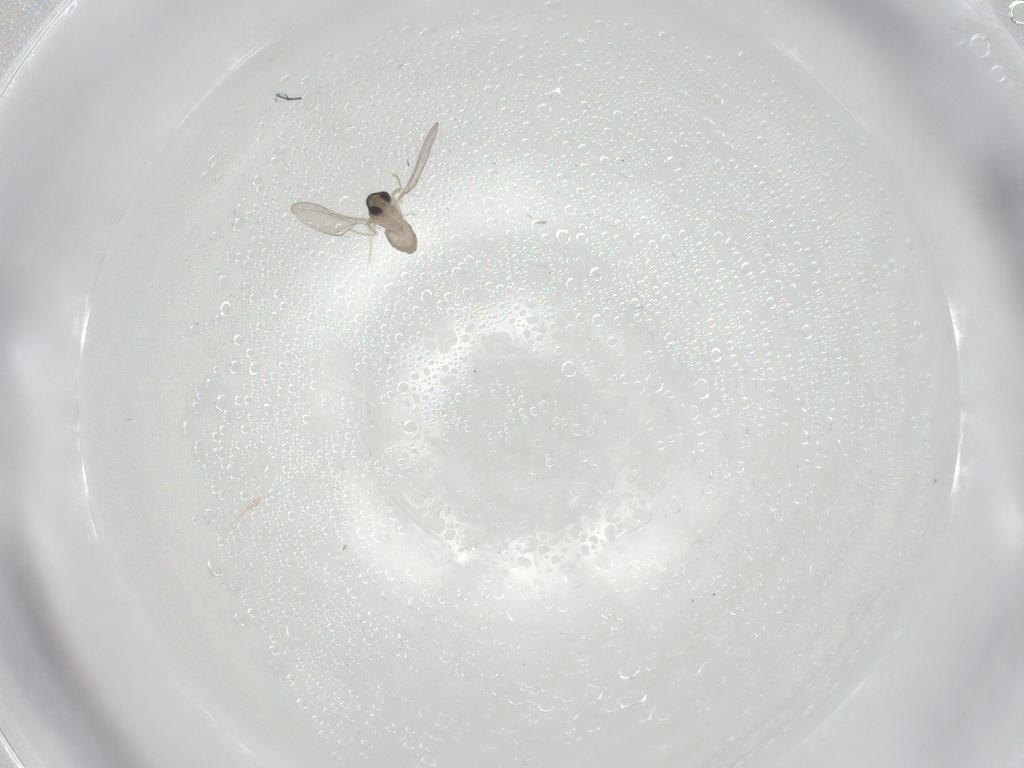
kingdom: Animalia
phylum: Arthropoda
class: Insecta
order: Diptera
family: Cecidomyiidae
